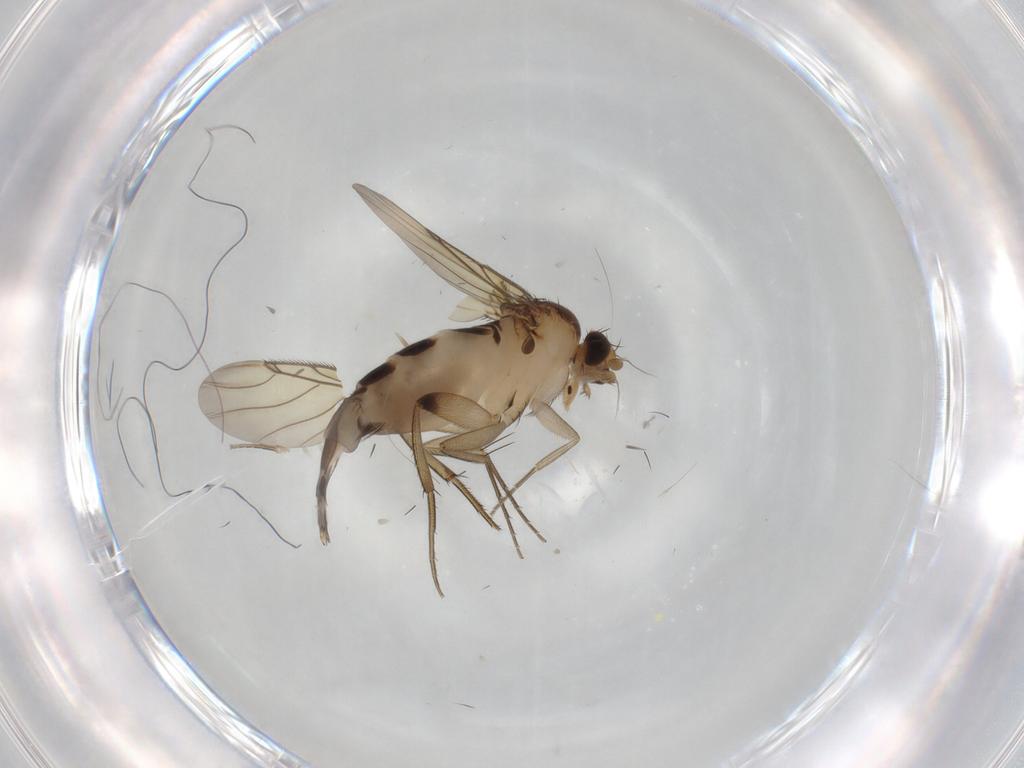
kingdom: Animalia
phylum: Arthropoda
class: Insecta
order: Diptera
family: Phoridae
